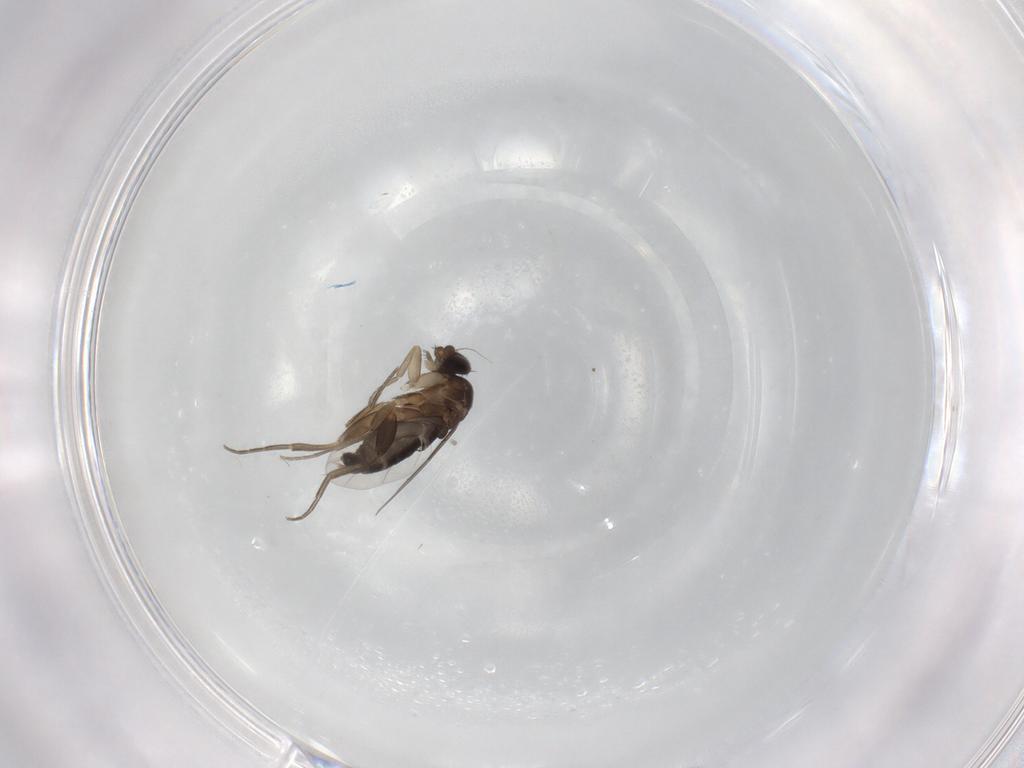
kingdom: Animalia
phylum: Arthropoda
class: Insecta
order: Diptera
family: Phoridae
